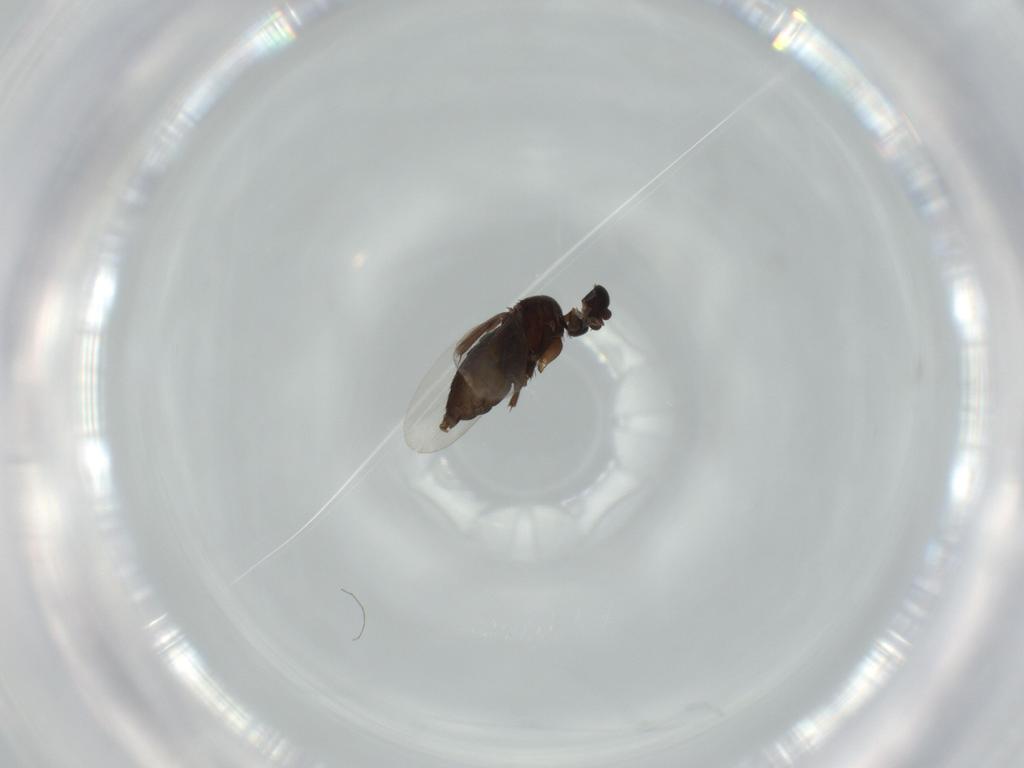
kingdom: Animalia
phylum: Arthropoda
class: Insecta
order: Diptera
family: Phoridae
